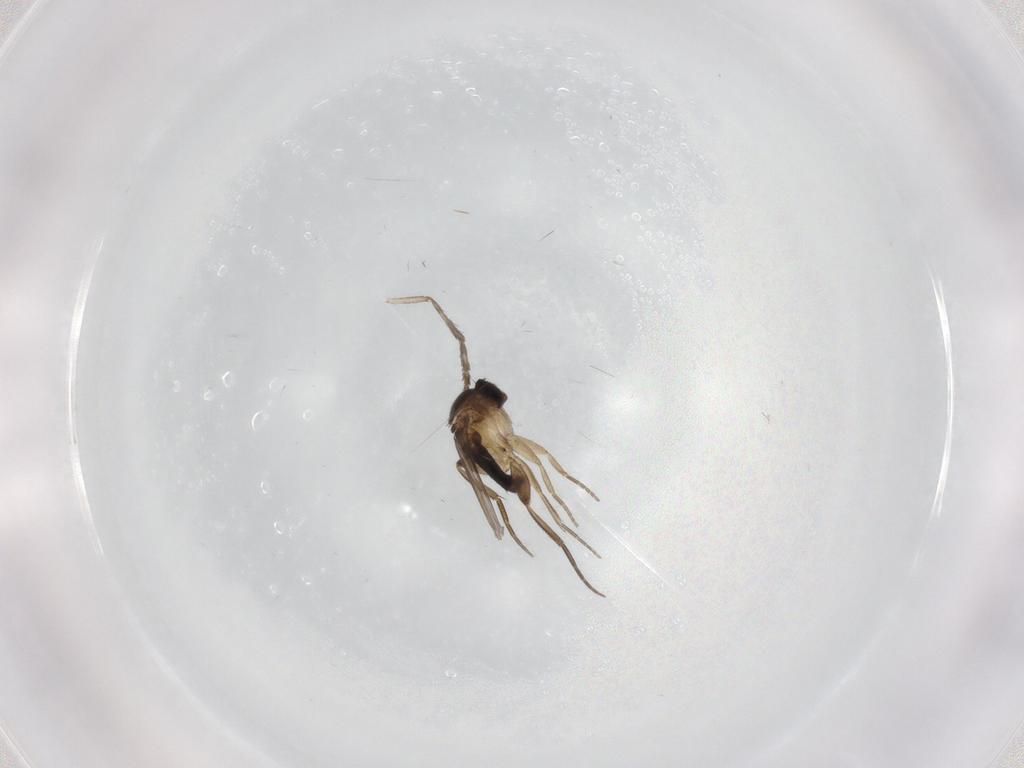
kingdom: Animalia
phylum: Arthropoda
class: Insecta
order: Diptera
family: Phoridae
